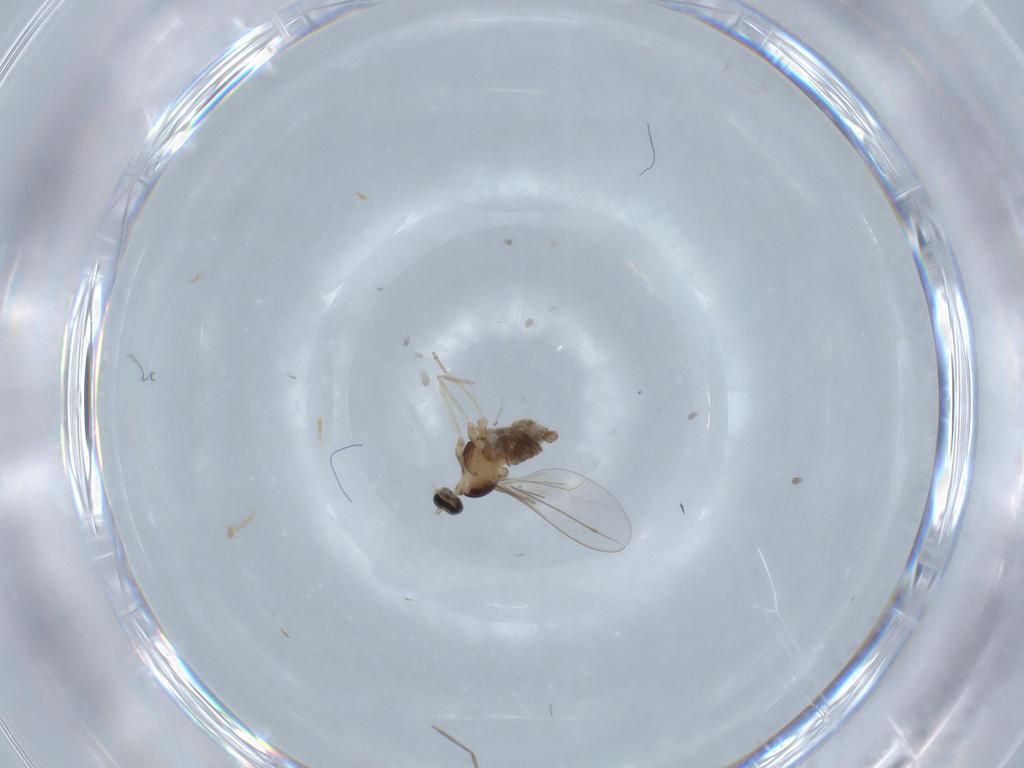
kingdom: Animalia
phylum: Arthropoda
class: Insecta
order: Diptera
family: Cecidomyiidae
